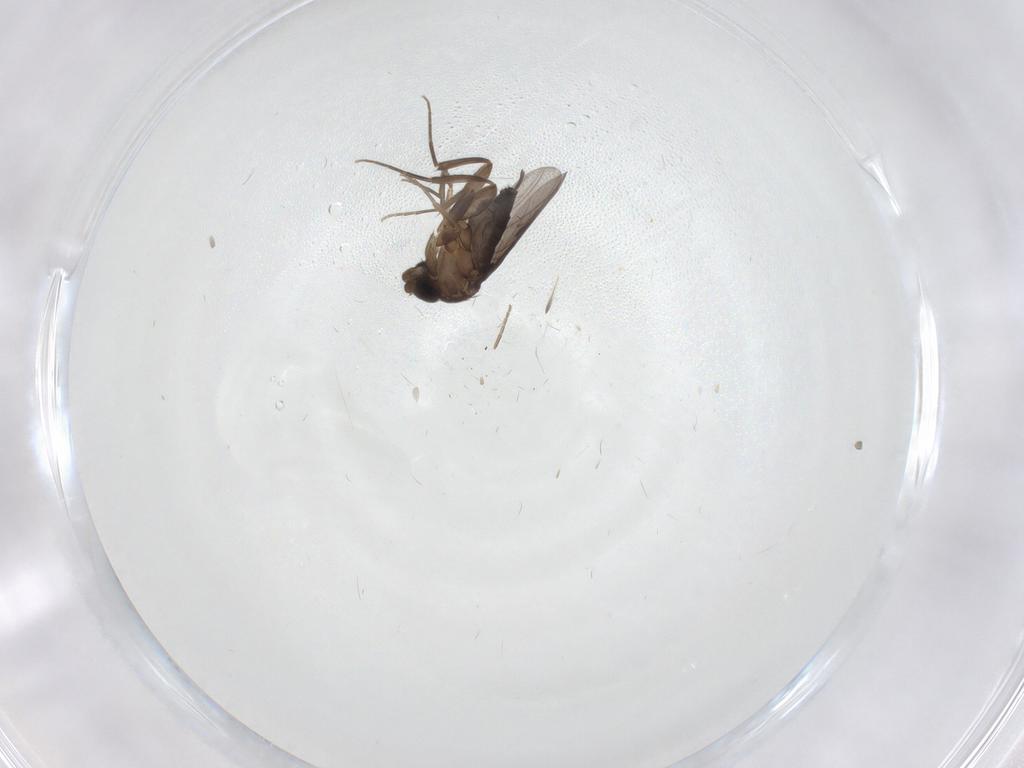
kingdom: Animalia
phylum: Arthropoda
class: Insecta
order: Diptera
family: Phoridae
